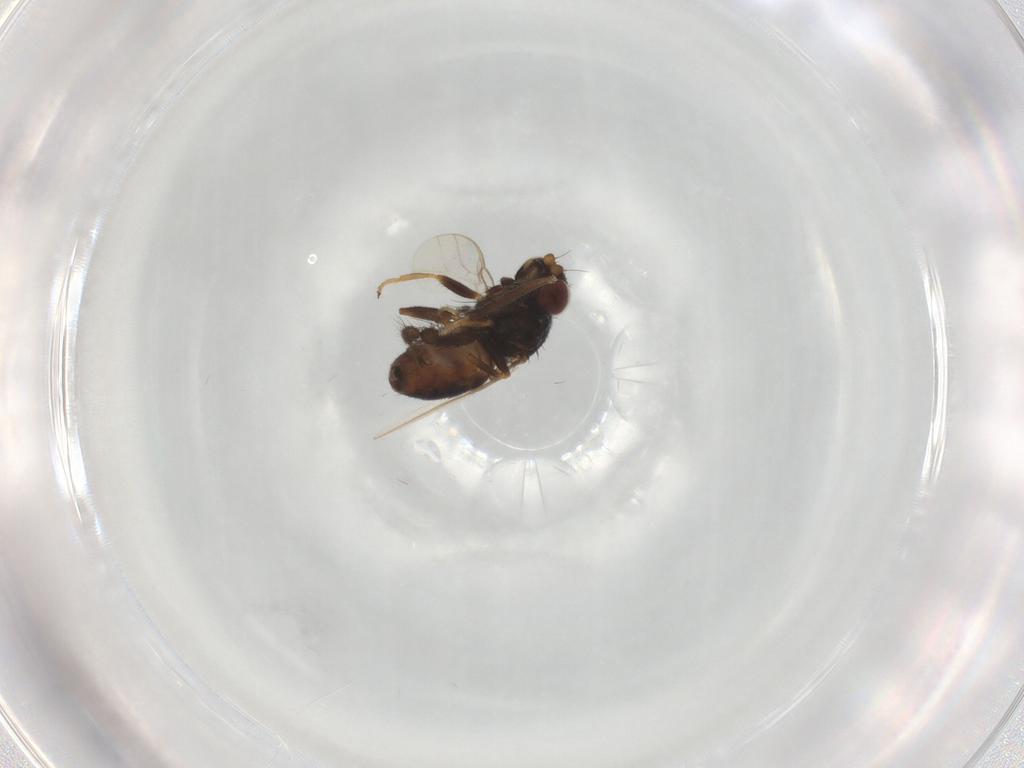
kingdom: Animalia
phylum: Arthropoda
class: Insecta
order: Diptera
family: Chloropidae
